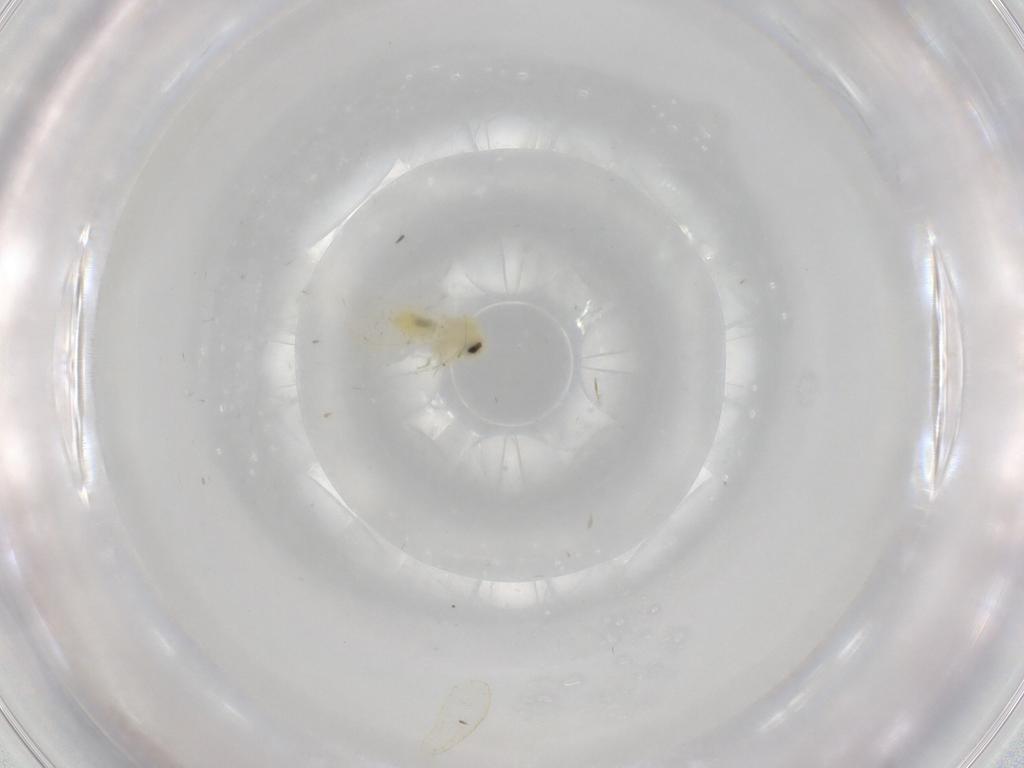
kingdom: Animalia
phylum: Arthropoda
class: Insecta
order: Hemiptera
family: Aleyrodidae
